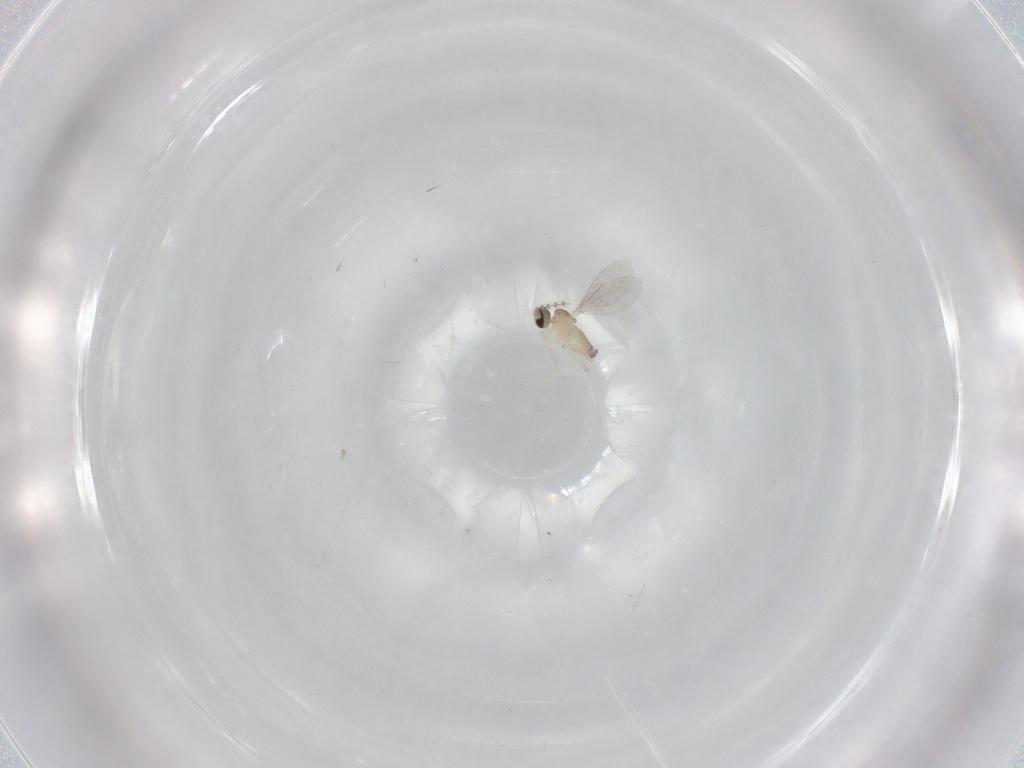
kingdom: Animalia
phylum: Arthropoda
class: Insecta
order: Diptera
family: Cecidomyiidae
